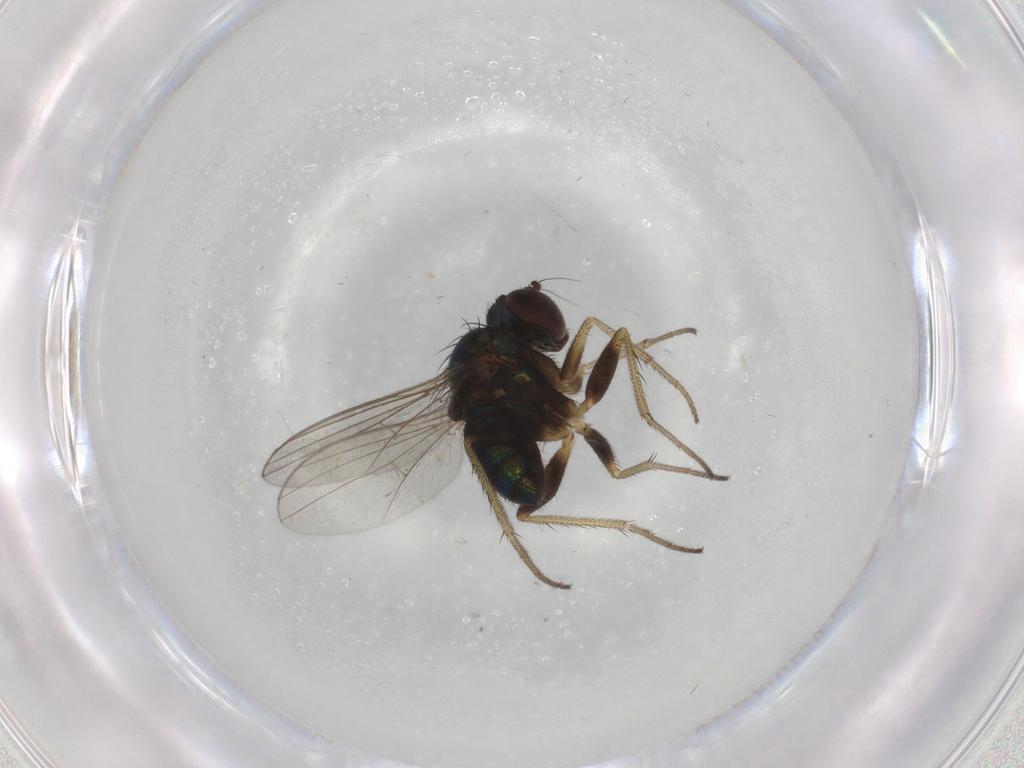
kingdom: Animalia
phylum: Arthropoda
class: Insecta
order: Diptera
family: Dolichopodidae
